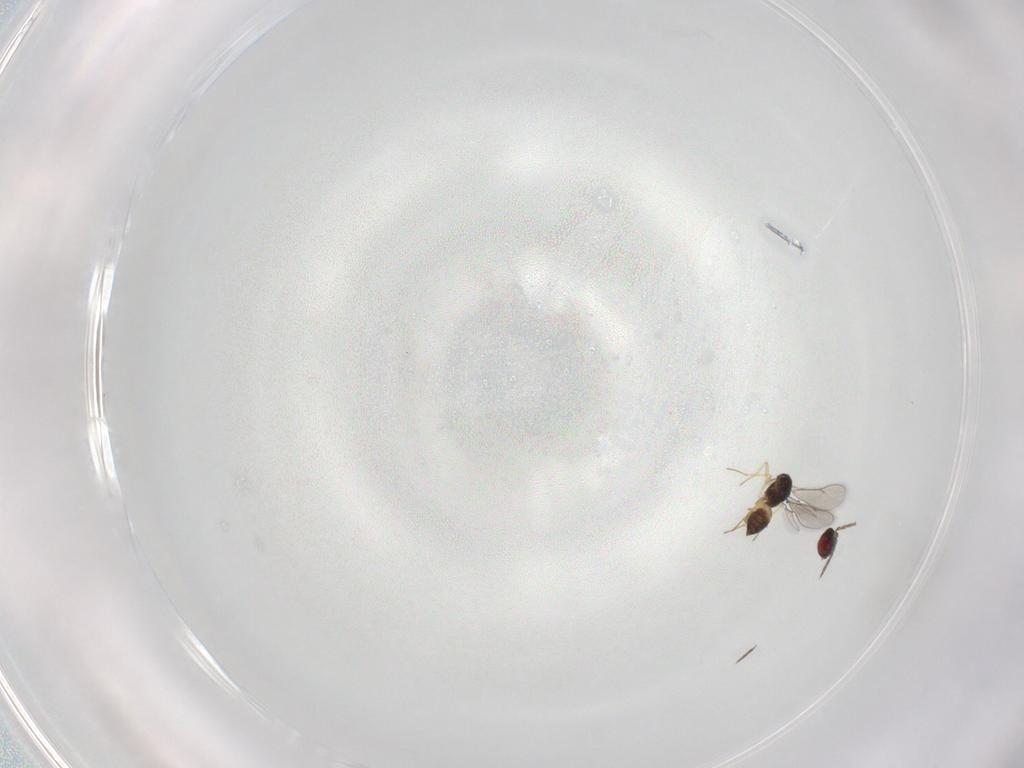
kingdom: Animalia
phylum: Arthropoda
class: Insecta
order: Hymenoptera
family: Eulophidae
